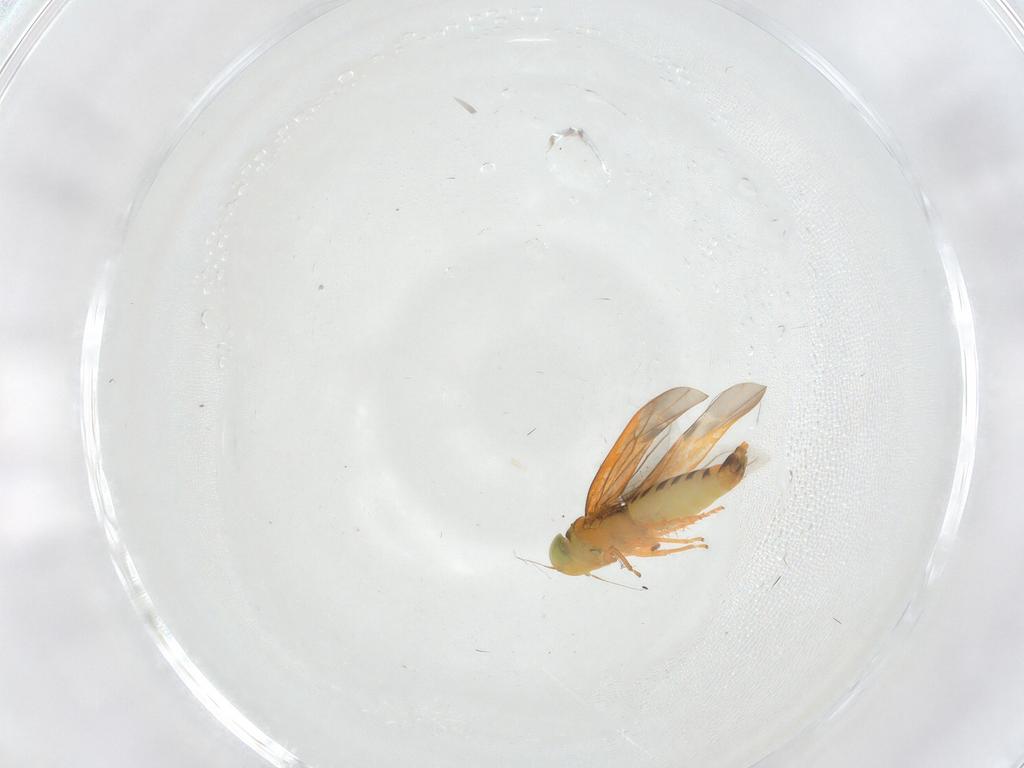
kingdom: Animalia
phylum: Arthropoda
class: Insecta
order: Hemiptera
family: Cicadellidae
